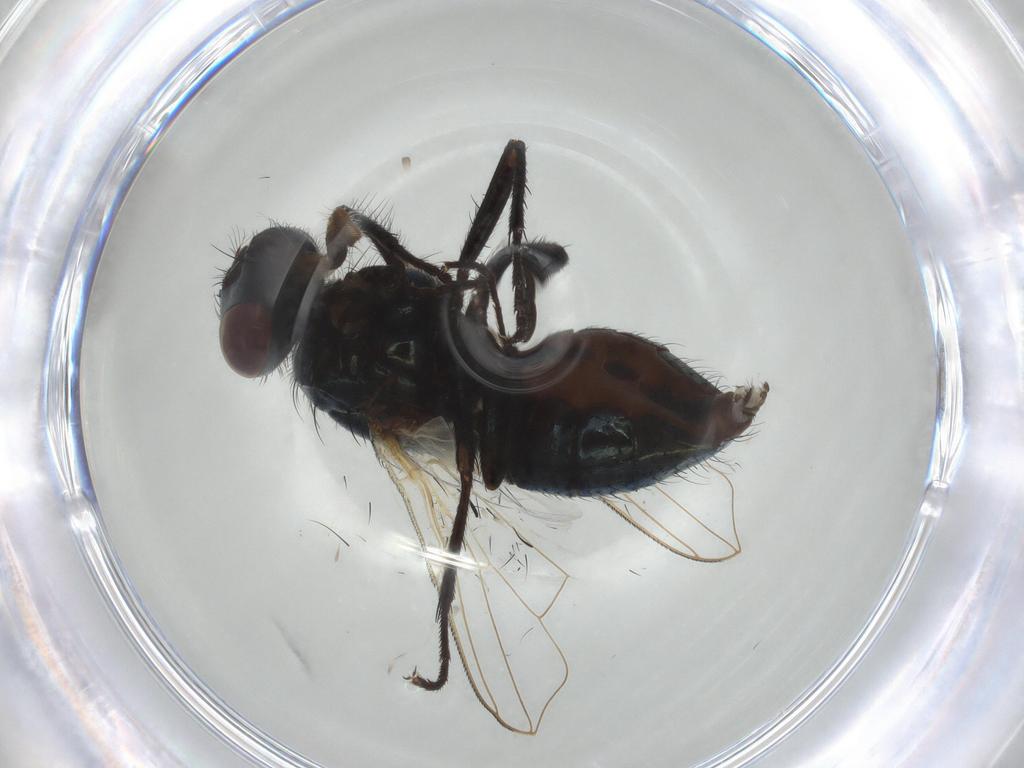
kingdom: Animalia
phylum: Arthropoda
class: Insecta
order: Diptera
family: Muscidae
